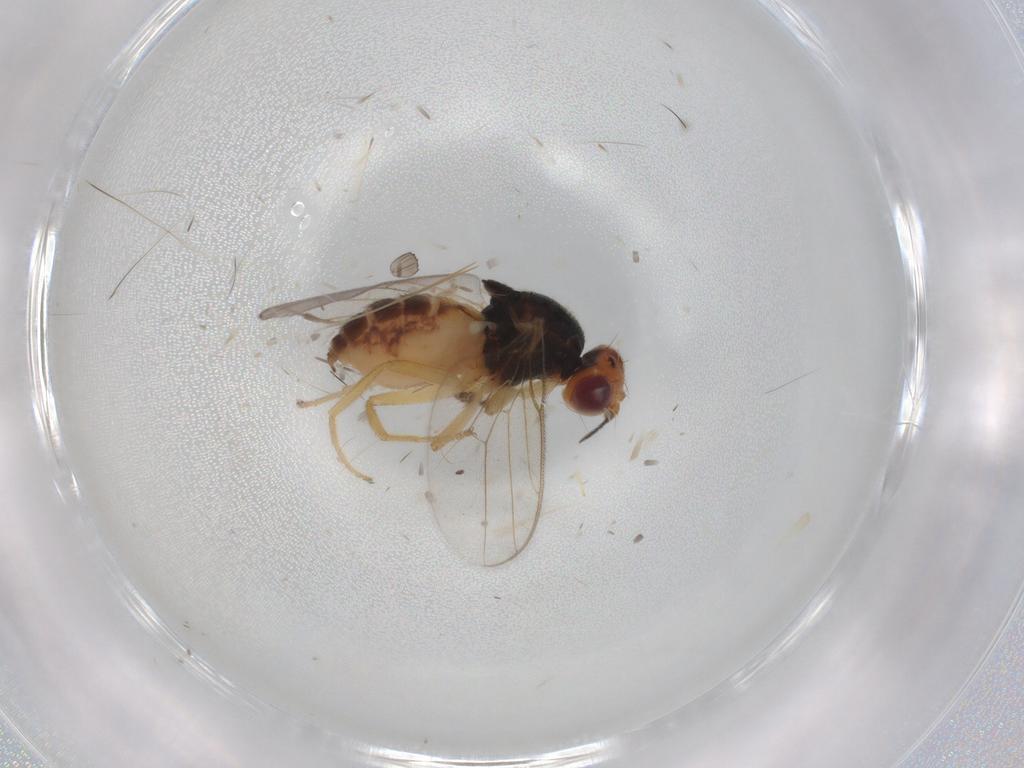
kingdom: Animalia
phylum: Arthropoda
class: Insecta
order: Diptera
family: Chloropidae
